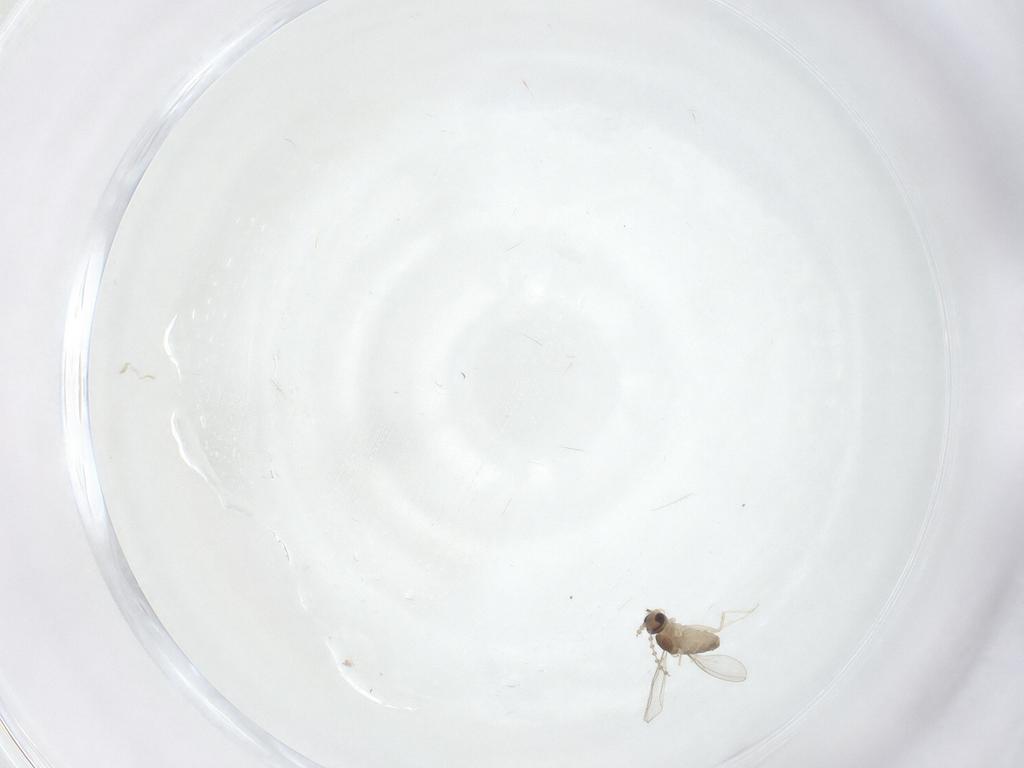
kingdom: Animalia
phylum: Arthropoda
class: Insecta
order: Diptera
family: Cecidomyiidae
